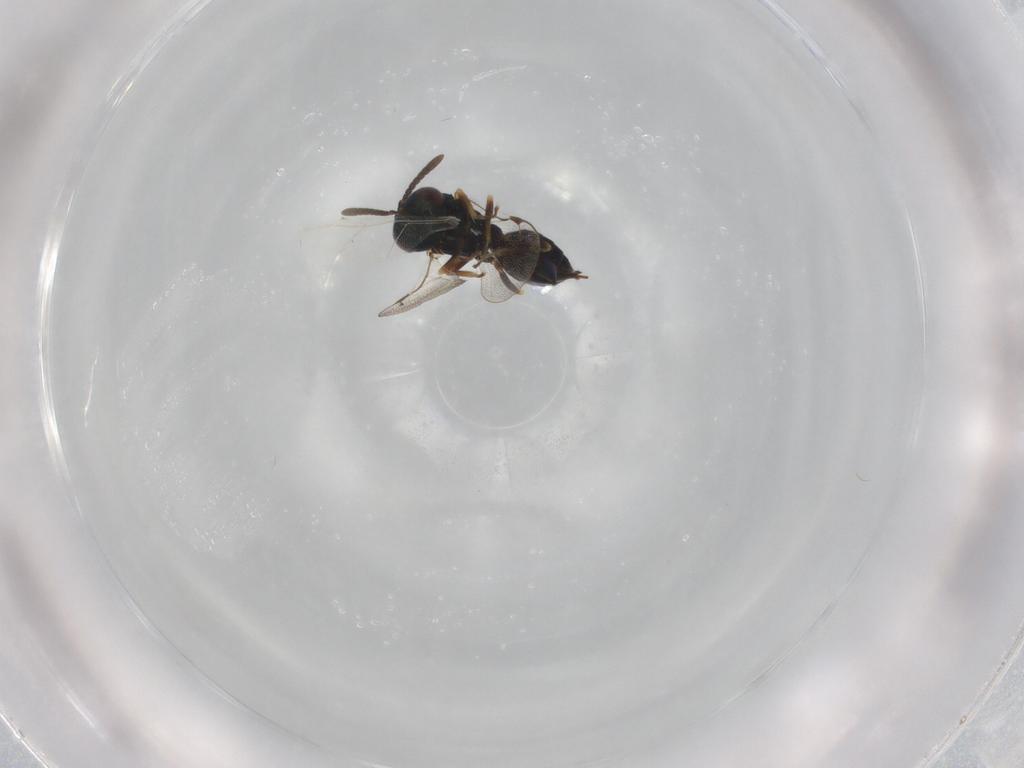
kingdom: Animalia
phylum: Arthropoda
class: Insecta
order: Hymenoptera
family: Pteromalidae
